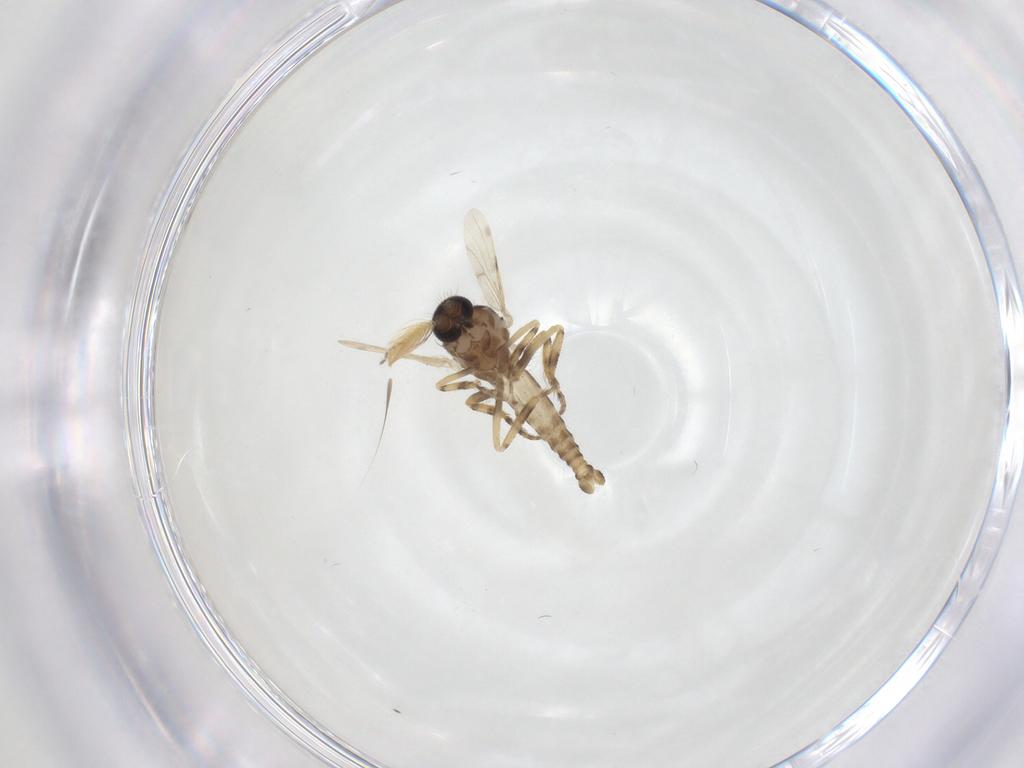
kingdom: Animalia
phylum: Arthropoda
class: Insecta
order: Diptera
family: Ceratopogonidae
